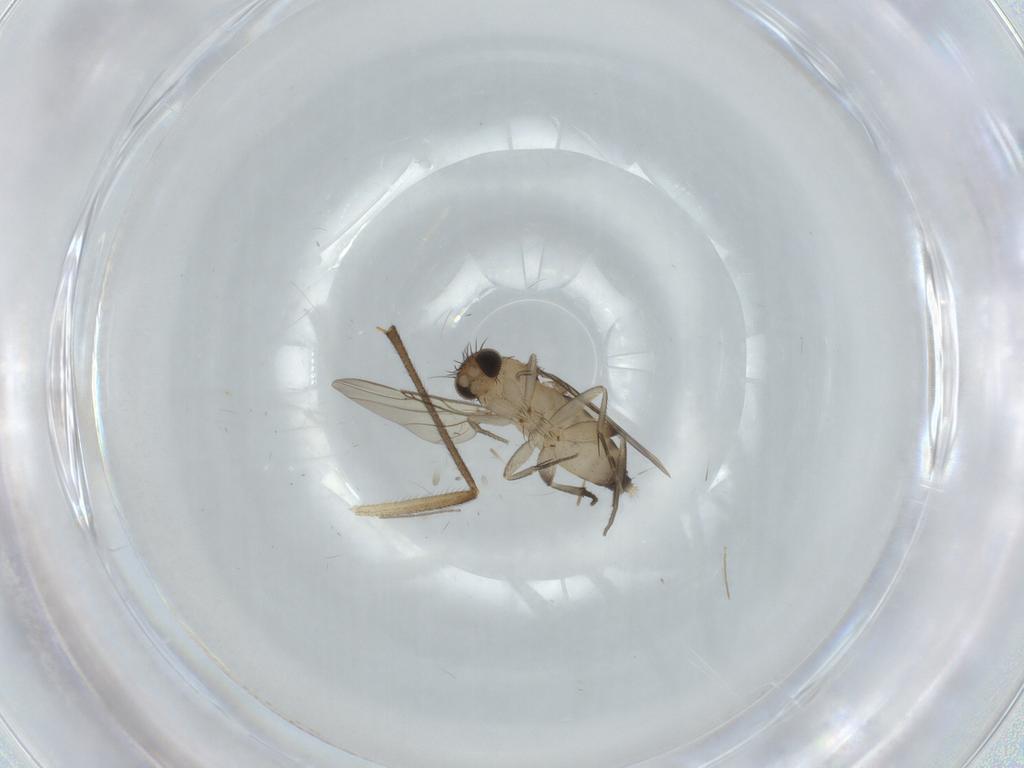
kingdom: Animalia
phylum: Arthropoda
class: Insecta
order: Diptera
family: Sciaridae
